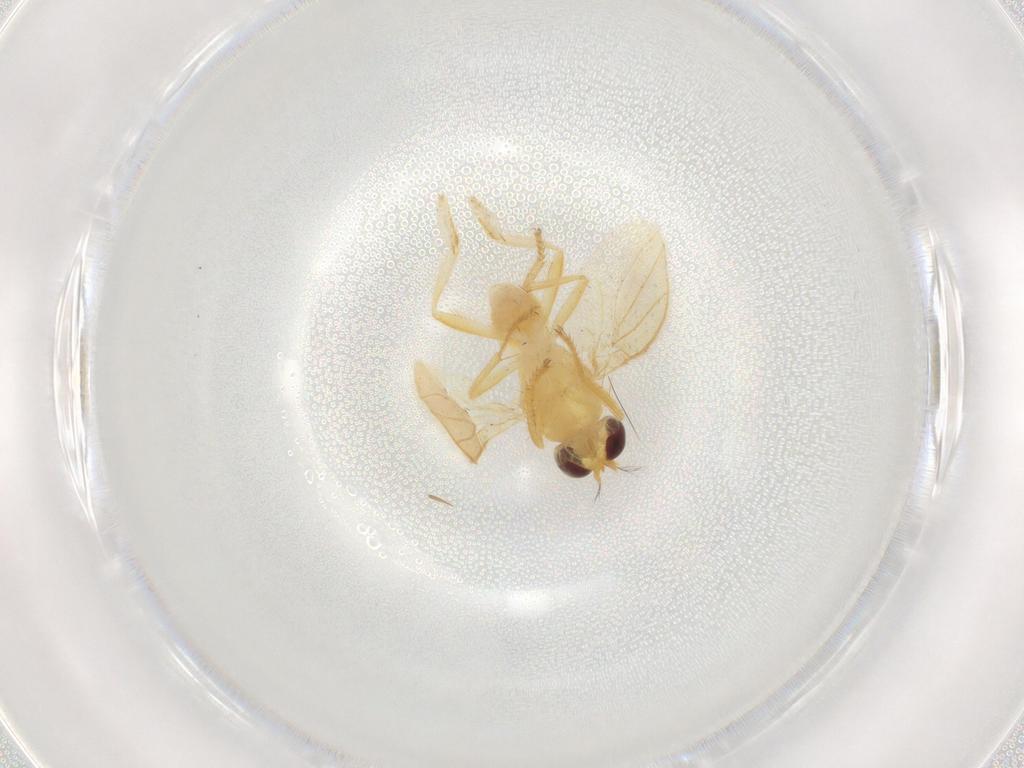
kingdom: Animalia
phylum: Arthropoda
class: Insecta
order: Diptera
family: Periscelididae
